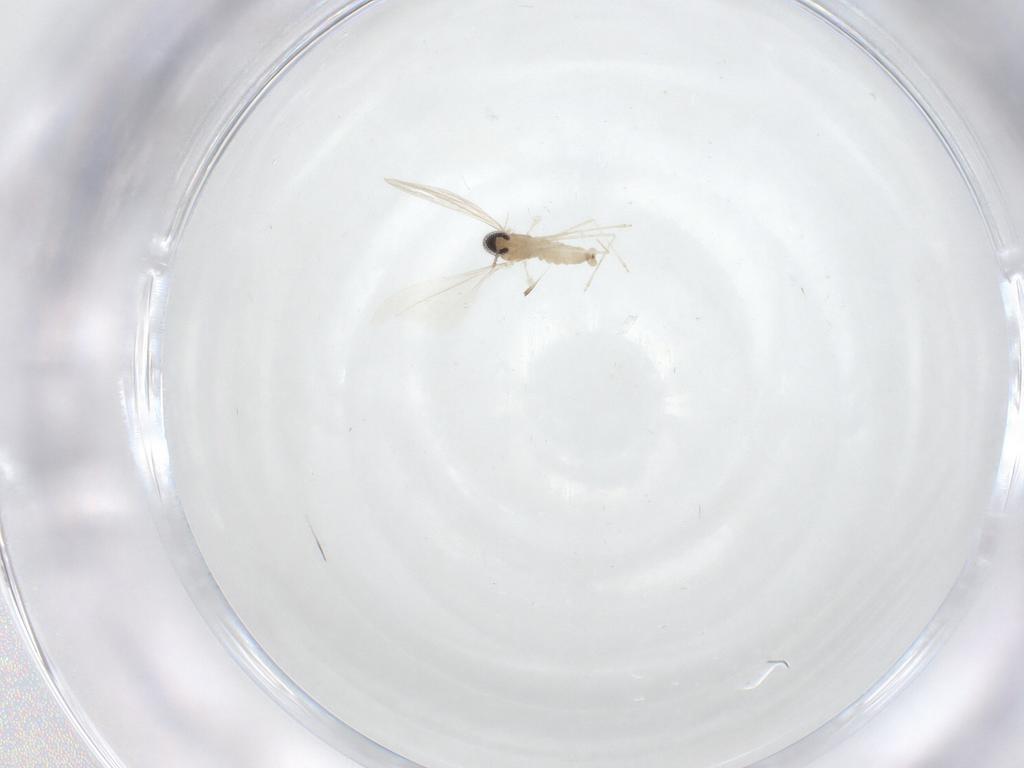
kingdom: Animalia
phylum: Arthropoda
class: Insecta
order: Diptera
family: Cecidomyiidae
